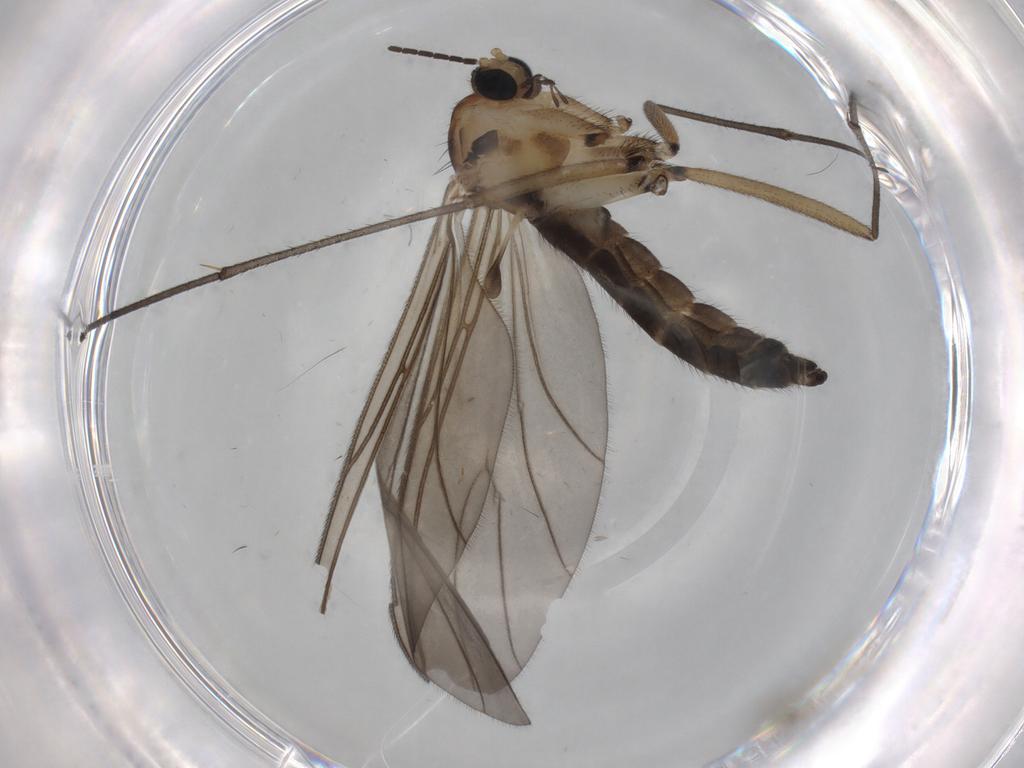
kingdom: Animalia
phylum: Arthropoda
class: Insecta
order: Diptera
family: Sciaridae
